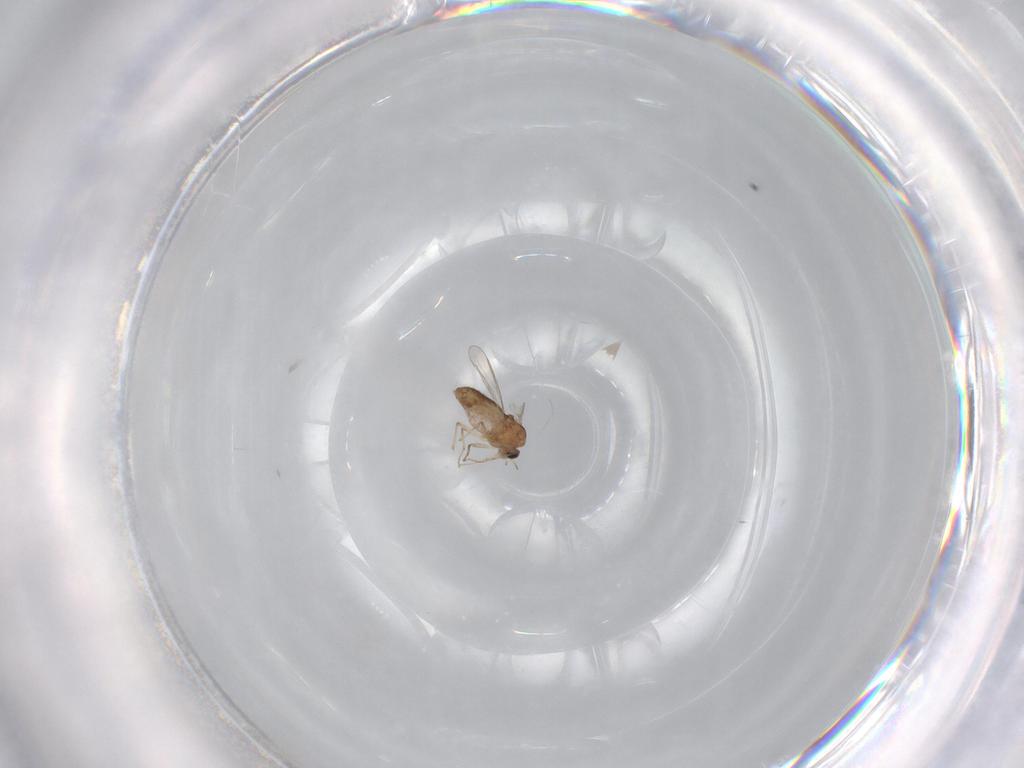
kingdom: Animalia
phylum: Arthropoda
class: Insecta
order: Diptera
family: Chironomidae
